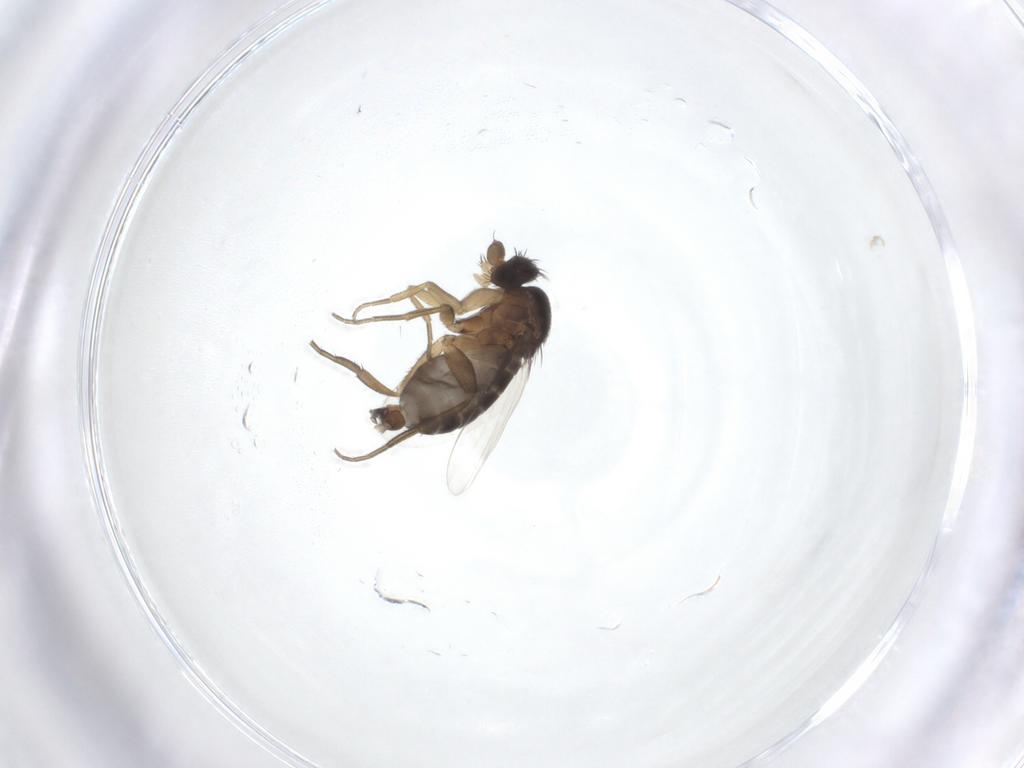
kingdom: Animalia
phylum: Arthropoda
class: Insecta
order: Diptera
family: Phoridae
